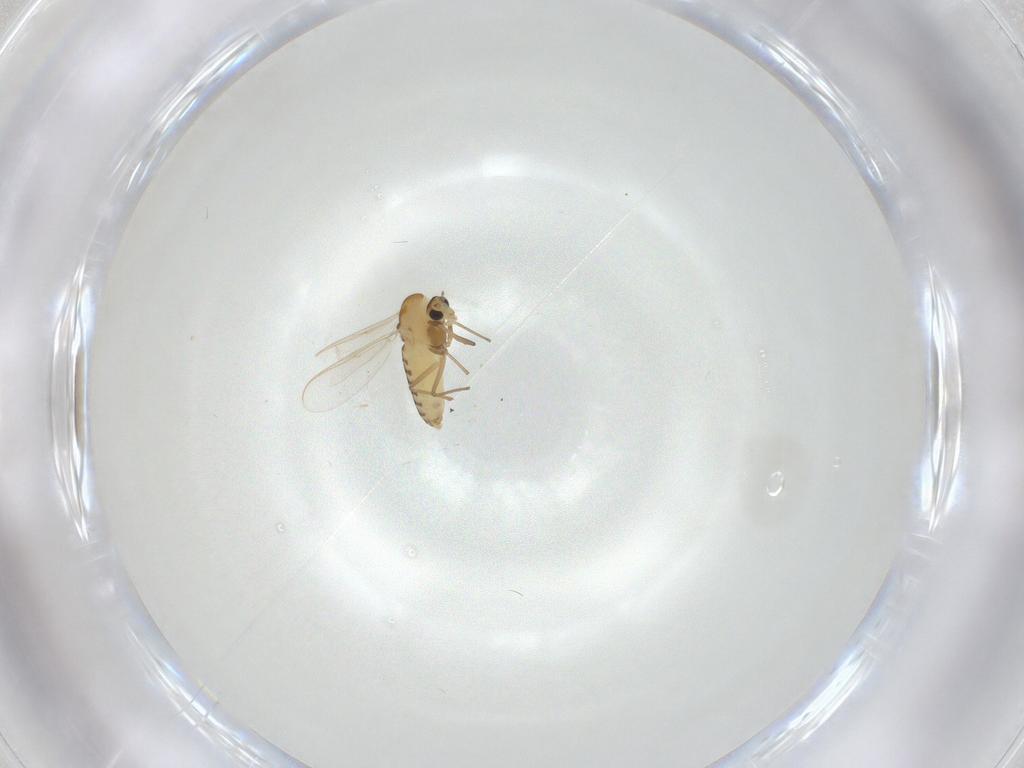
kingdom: Animalia
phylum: Arthropoda
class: Insecta
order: Diptera
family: Chironomidae
